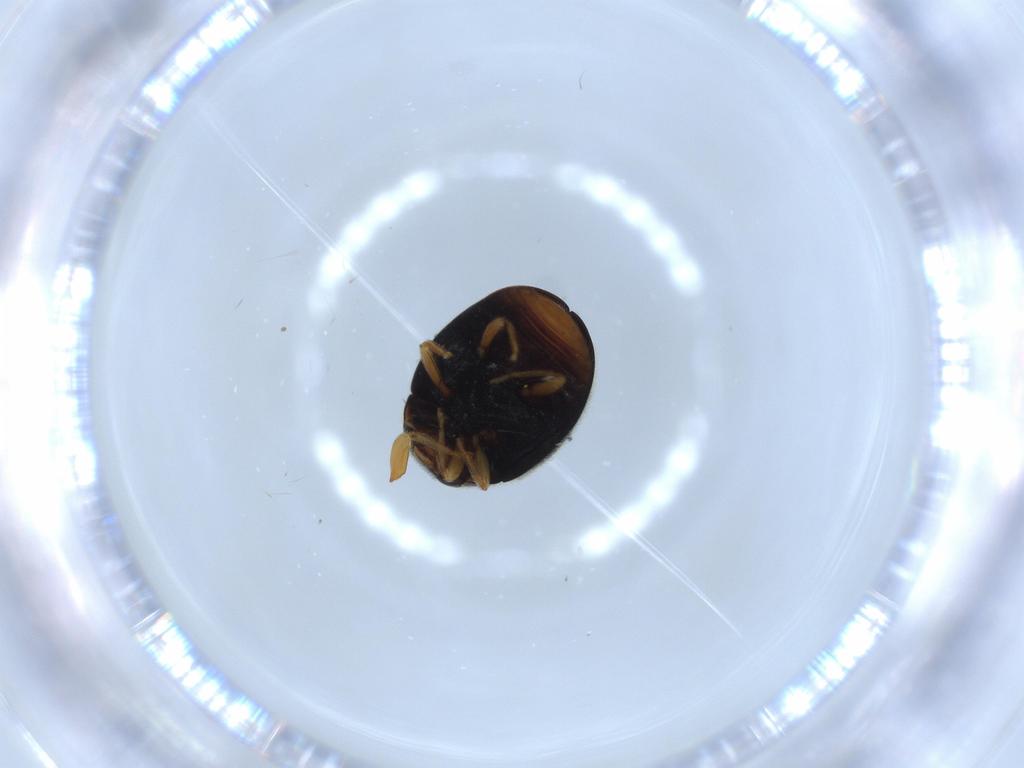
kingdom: Animalia
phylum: Arthropoda
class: Insecta
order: Coleoptera
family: Coccinellidae
